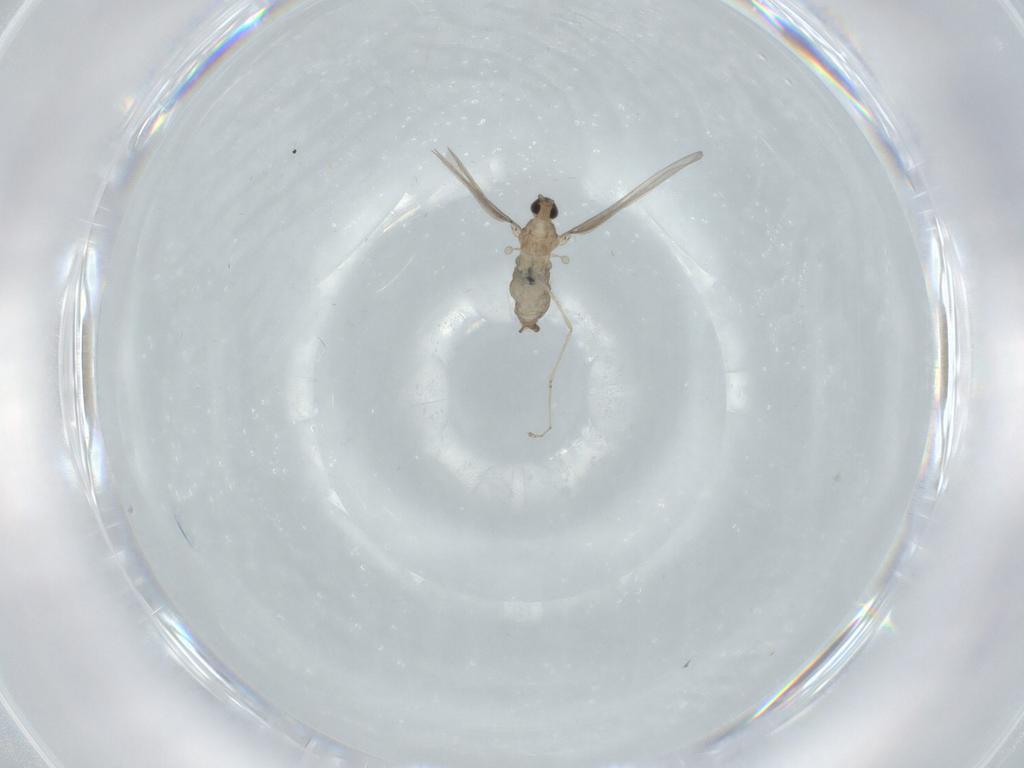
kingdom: Animalia
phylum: Arthropoda
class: Insecta
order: Diptera
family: Cecidomyiidae
